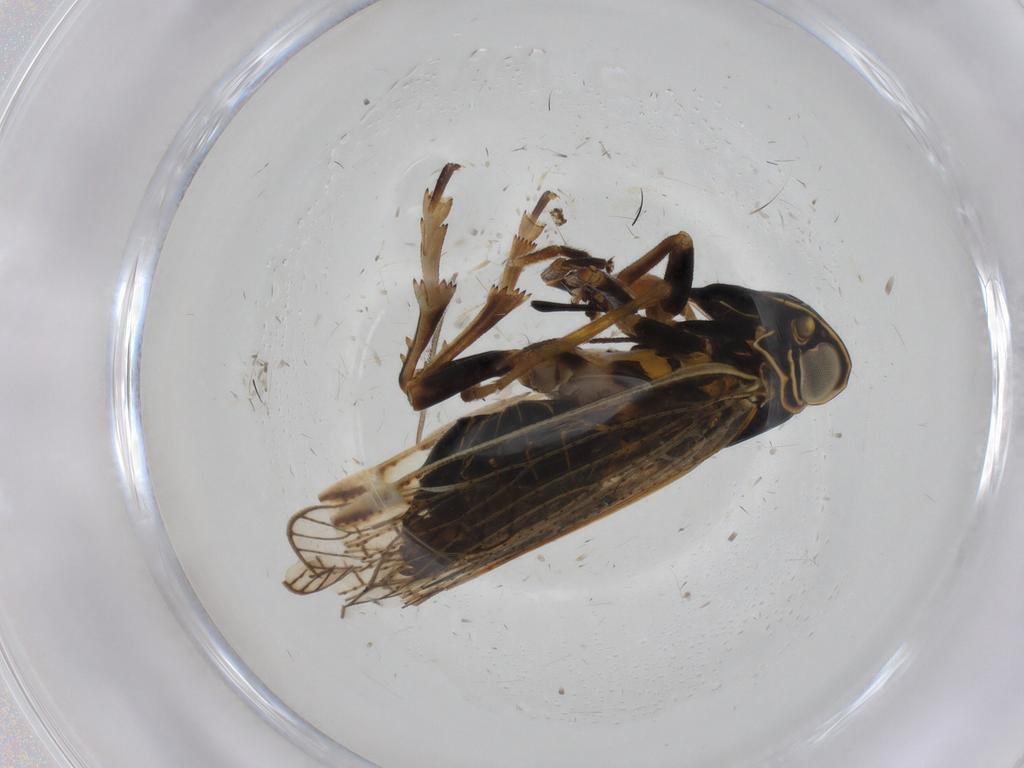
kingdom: Animalia
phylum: Arthropoda
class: Insecta
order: Hemiptera
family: Cixiidae
